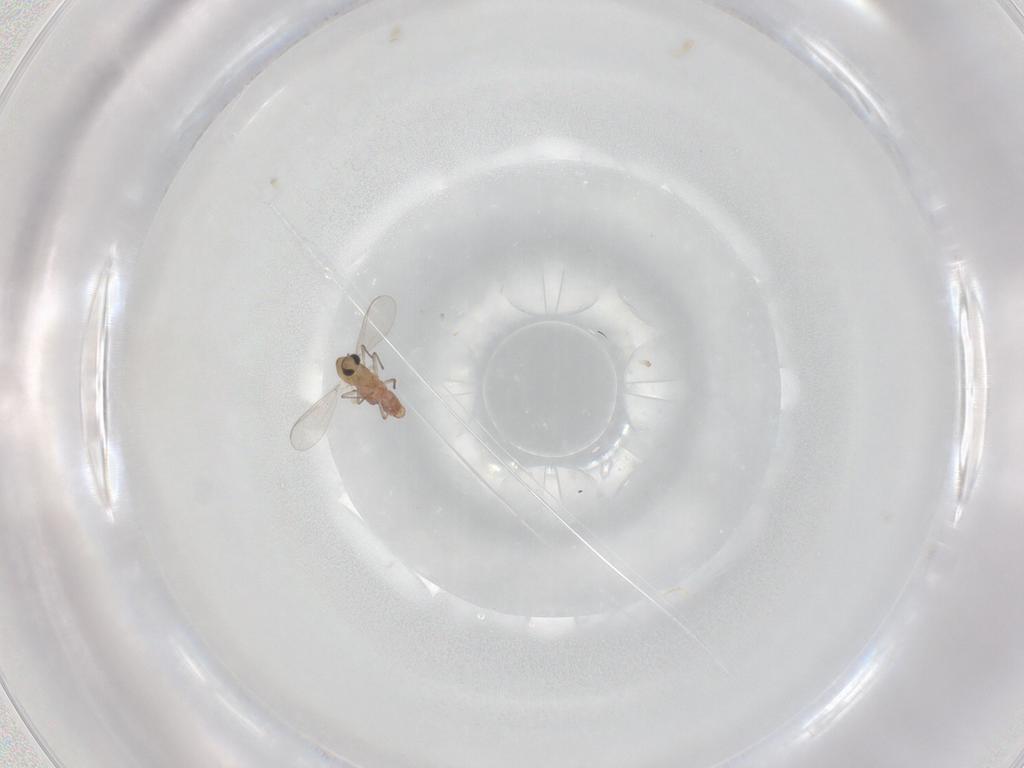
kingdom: Animalia
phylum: Arthropoda
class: Insecta
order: Diptera
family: Chironomidae
